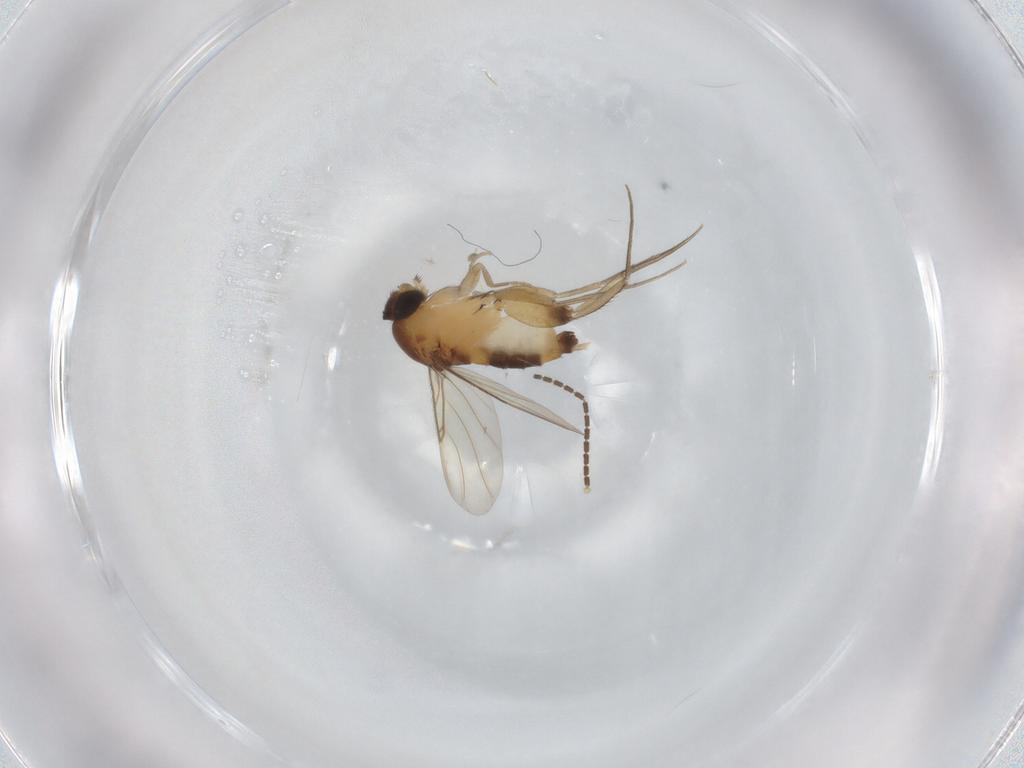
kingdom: Animalia
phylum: Arthropoda
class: Insecta
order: Diptera
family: Phoridae
